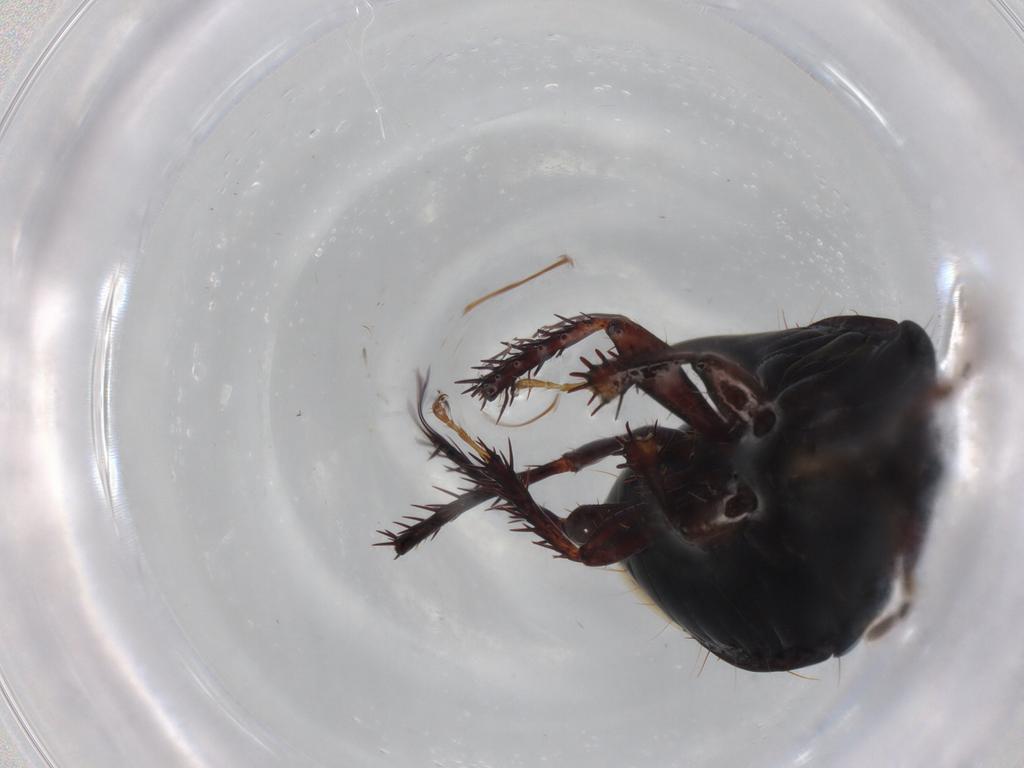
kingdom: Animalia
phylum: Arthropoda
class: Insecta
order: Hemiptera
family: Cydnidae
